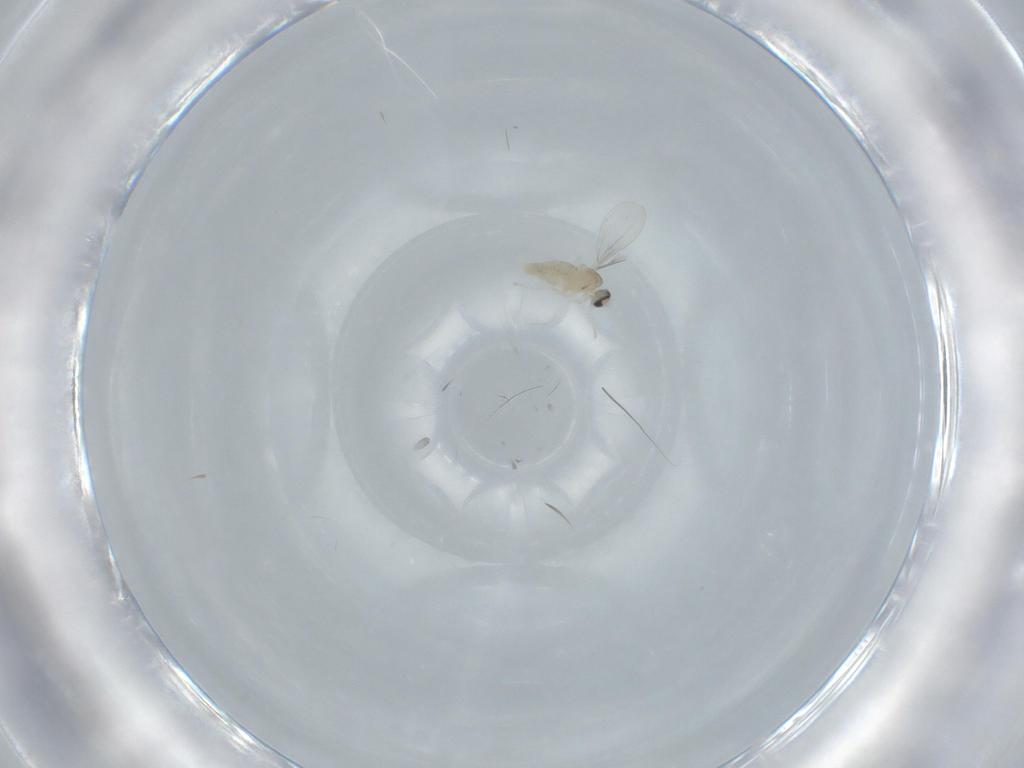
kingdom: Animalia
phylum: Arthropoda
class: Insecta
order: Diptera
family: Cecidomyiidae
